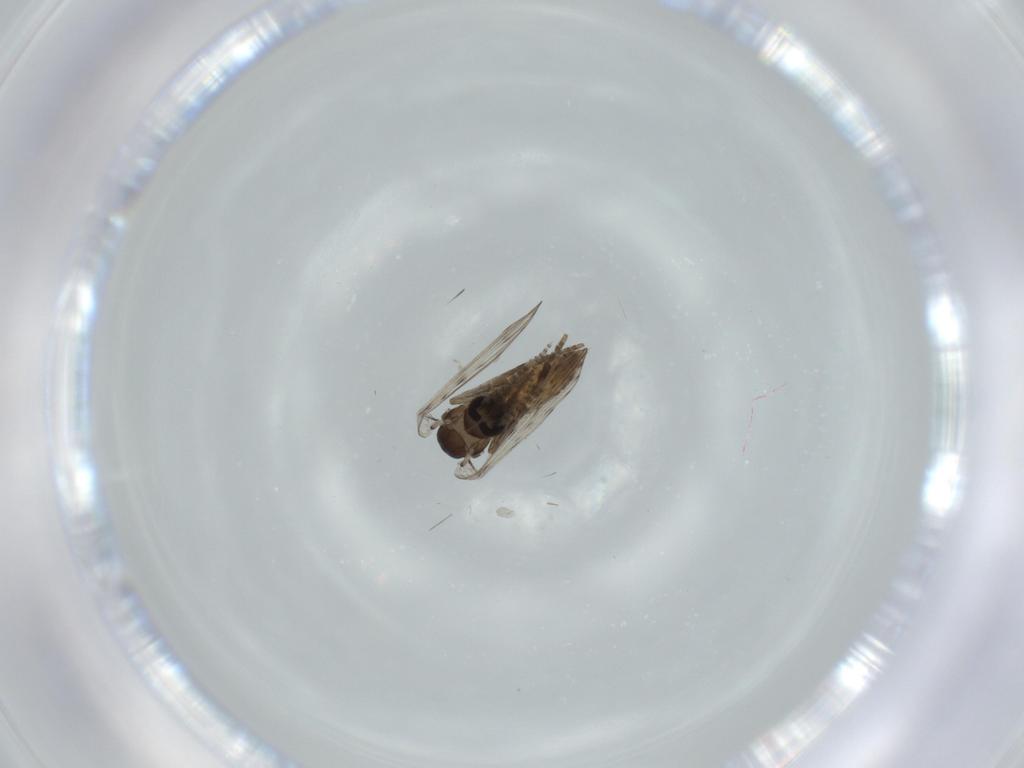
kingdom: Animalia
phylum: Arthropoda
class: Insecta
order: Diptera
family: Psychodidae
